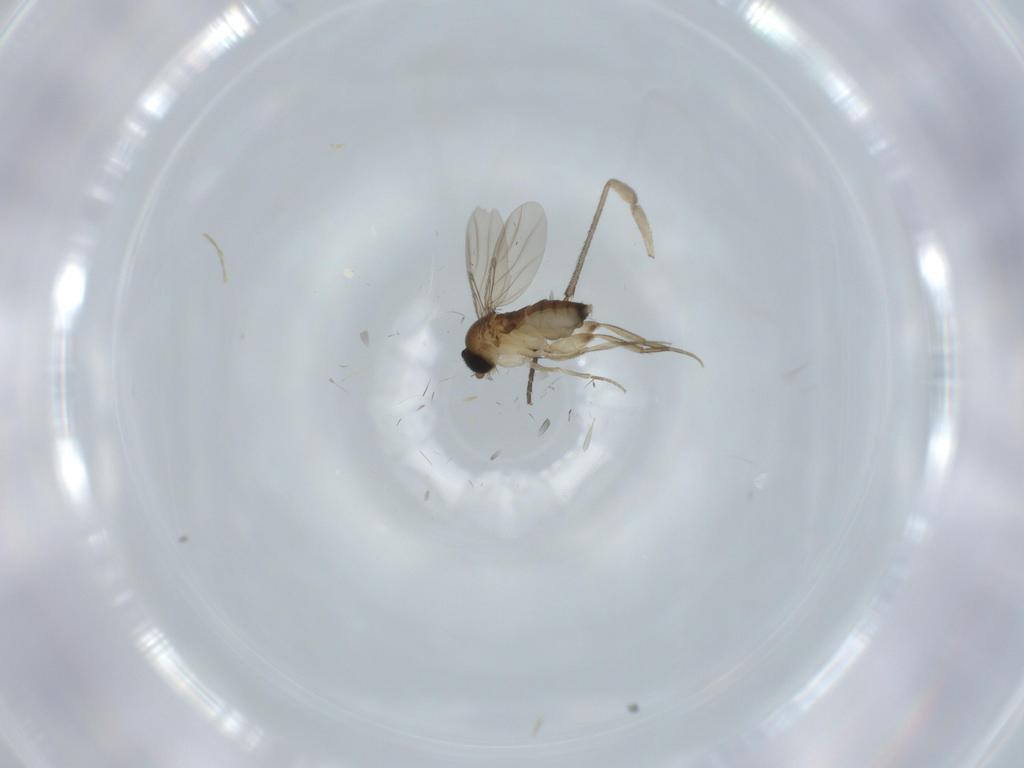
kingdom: Animalia
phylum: Arthropoda
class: Insecta
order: Diptera
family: Phoridae
